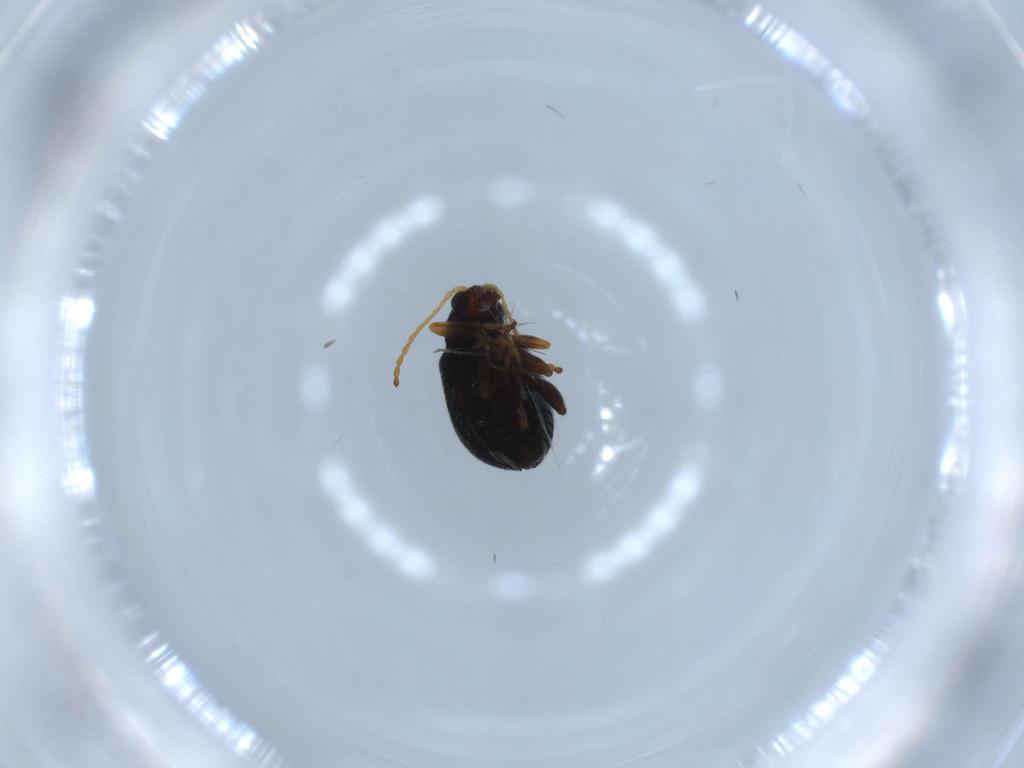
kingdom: Animalia
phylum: Arthropoda
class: Insecta
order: Coleoptera
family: Chrysomelidae
